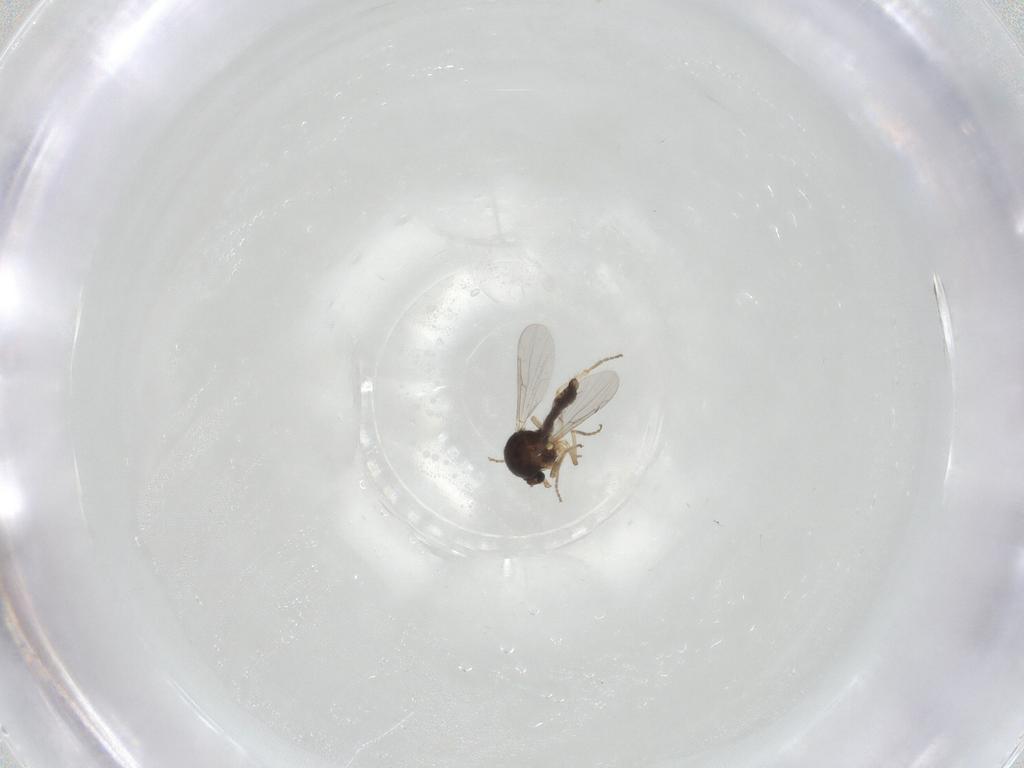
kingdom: Animalia
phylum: Arthropoda
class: Insecta
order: Diptera
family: Ceratopogonidae
